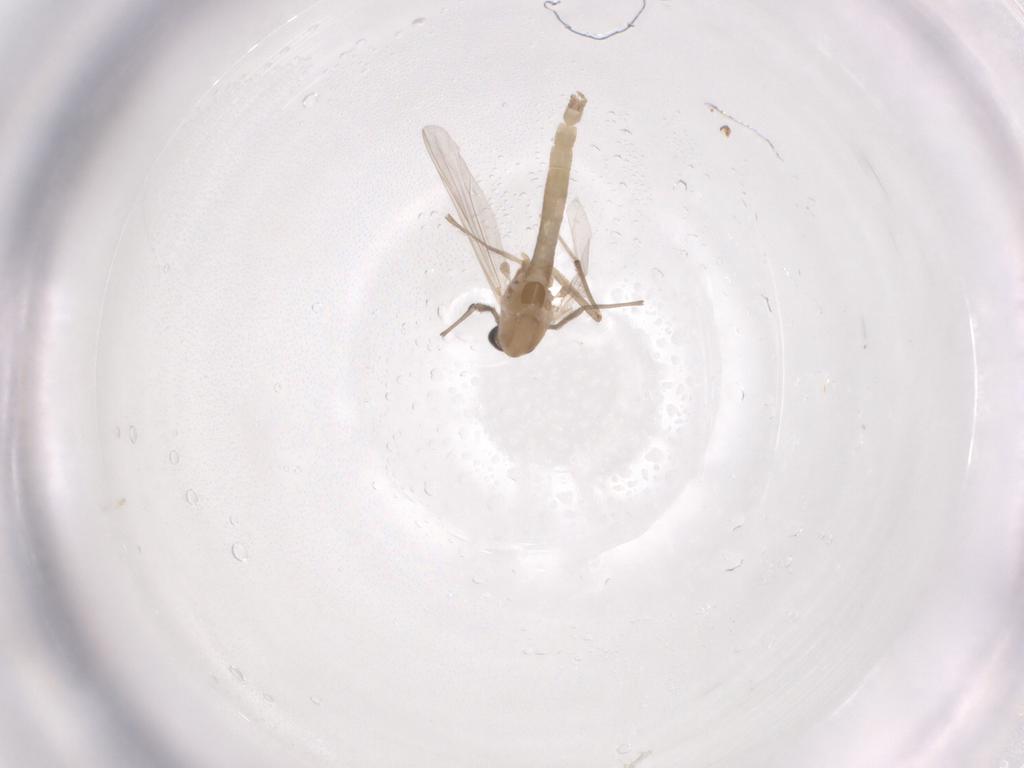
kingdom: Animalia
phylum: Arthropoda
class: Insecta
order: Diptera
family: Chironomidae
